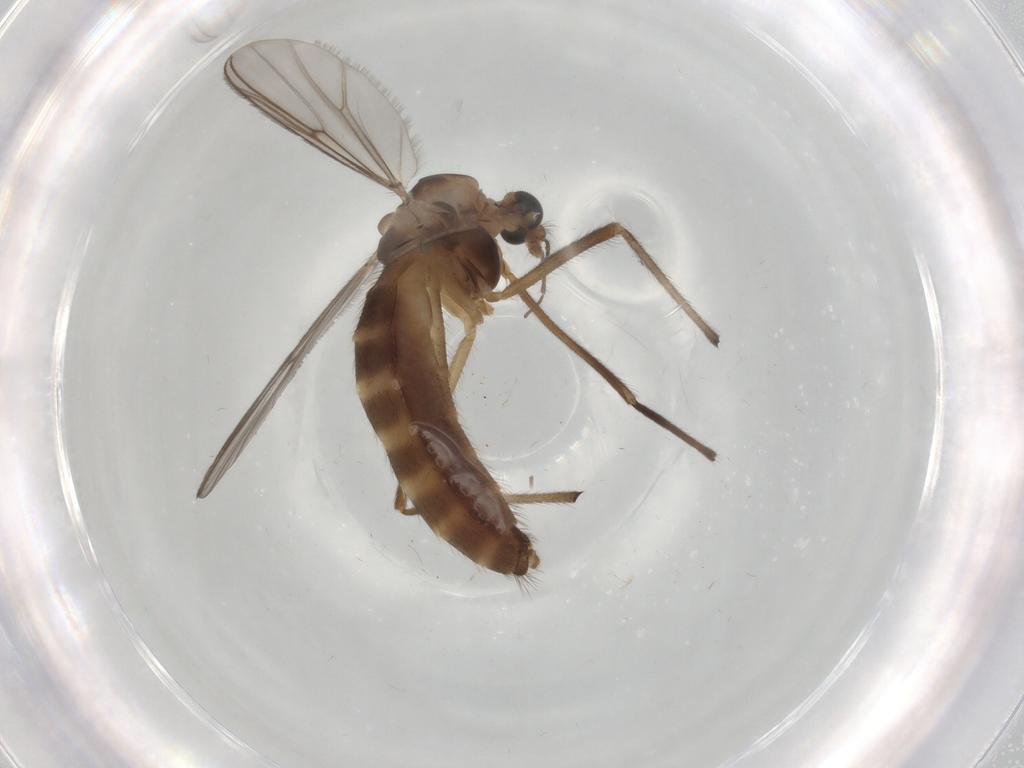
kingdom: Animalia
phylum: Arthropoda
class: Insecta
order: Diptera
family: Chironomidae
